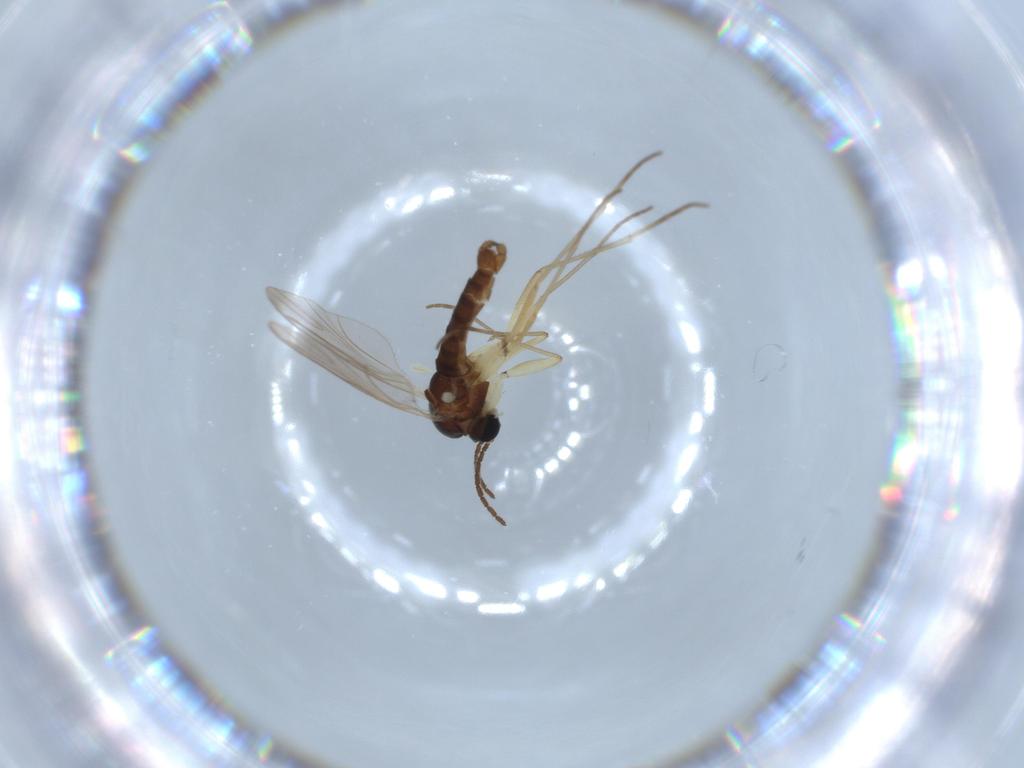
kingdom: Animalia
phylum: Arthropoda
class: Insecta
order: Diptera
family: Sciaridae
